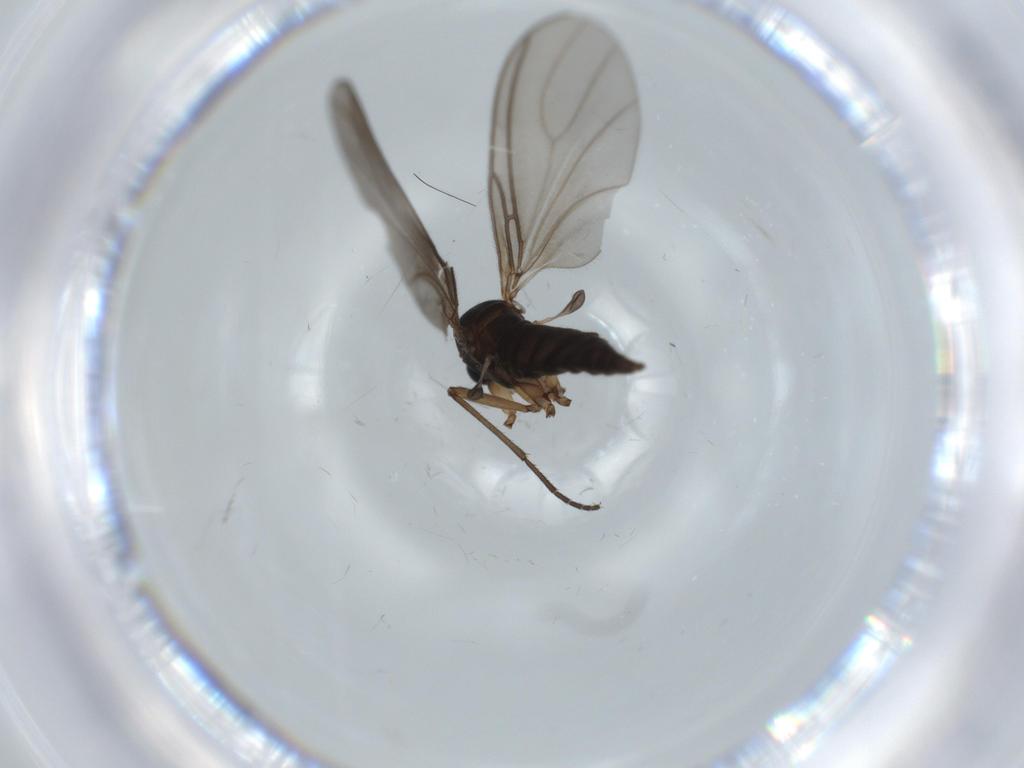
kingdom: Animalia
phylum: Arthropoda
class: Insecta
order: Diptera
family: Sciaridae
